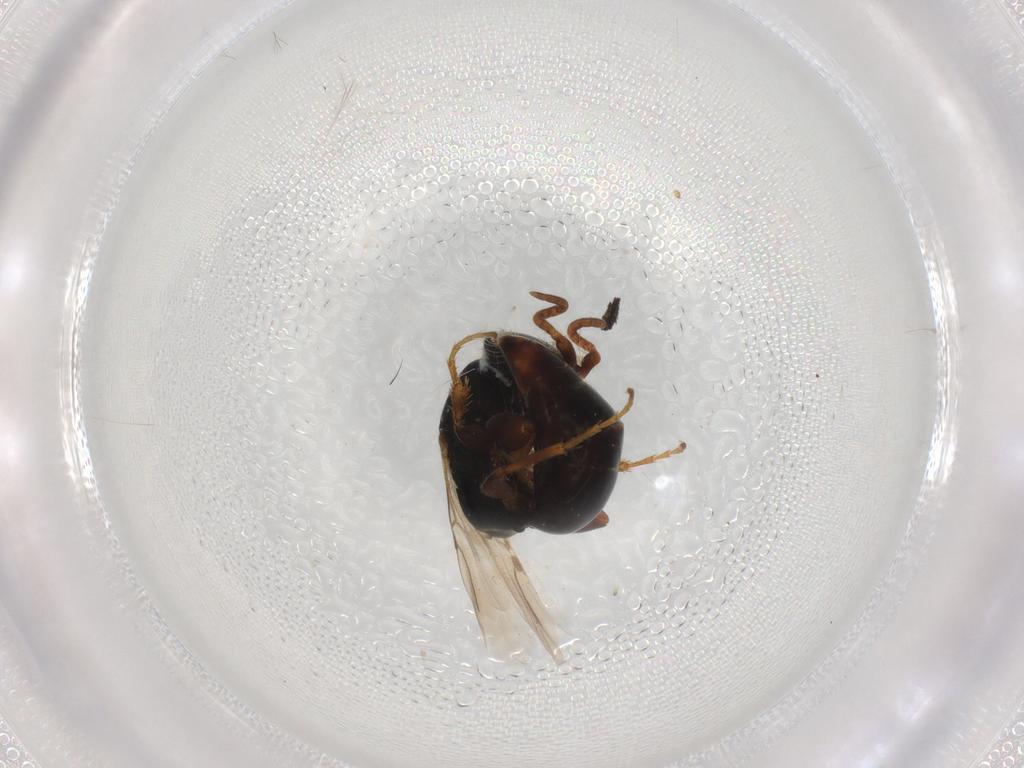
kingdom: Animalia
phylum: Arthropoda
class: Insecta
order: Hymenoptera
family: Bethylidae
